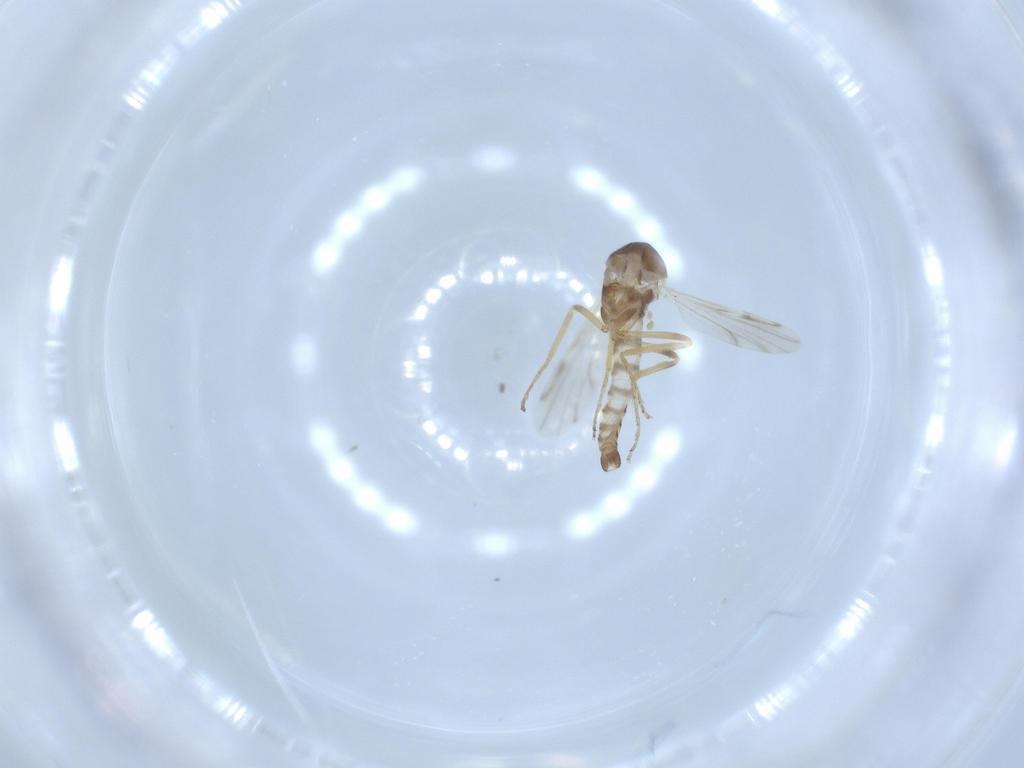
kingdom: Animalia
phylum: Arthropoda
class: Insecta
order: Diptera
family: Ceratopogonidae
